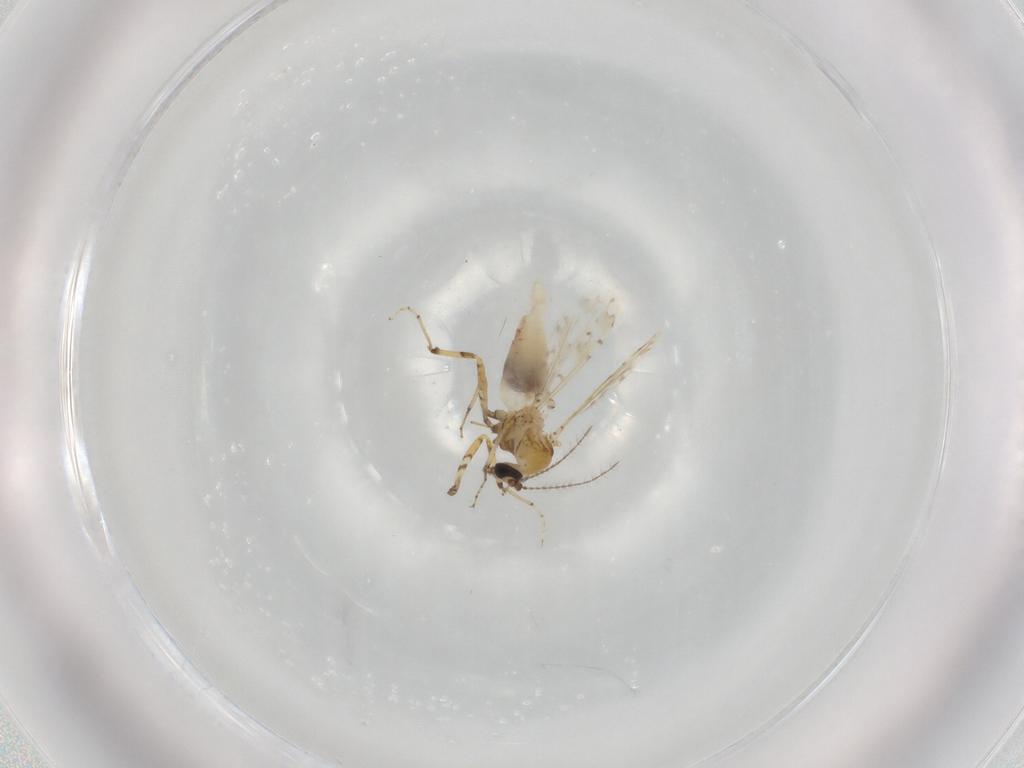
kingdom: Animalia
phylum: Arthropoda
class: Insecta
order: Diptera
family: Ceratopogonidae
